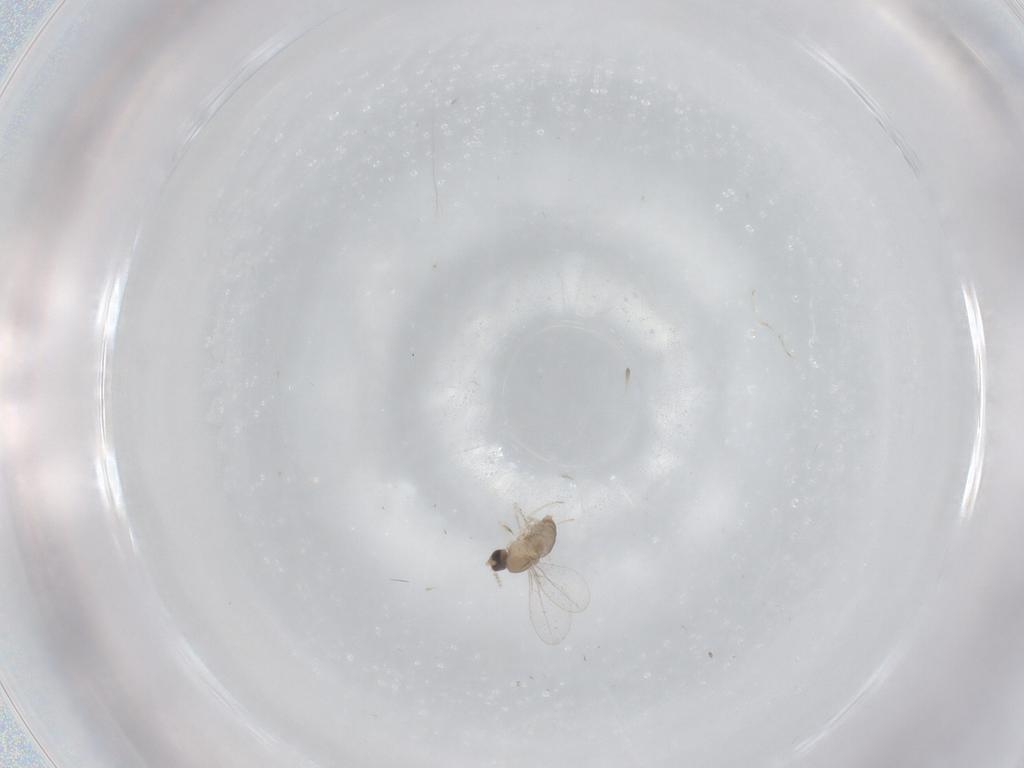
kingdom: Animalia
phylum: Arthropoda
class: Insecta
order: Diptera
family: Cecidomyiidae
